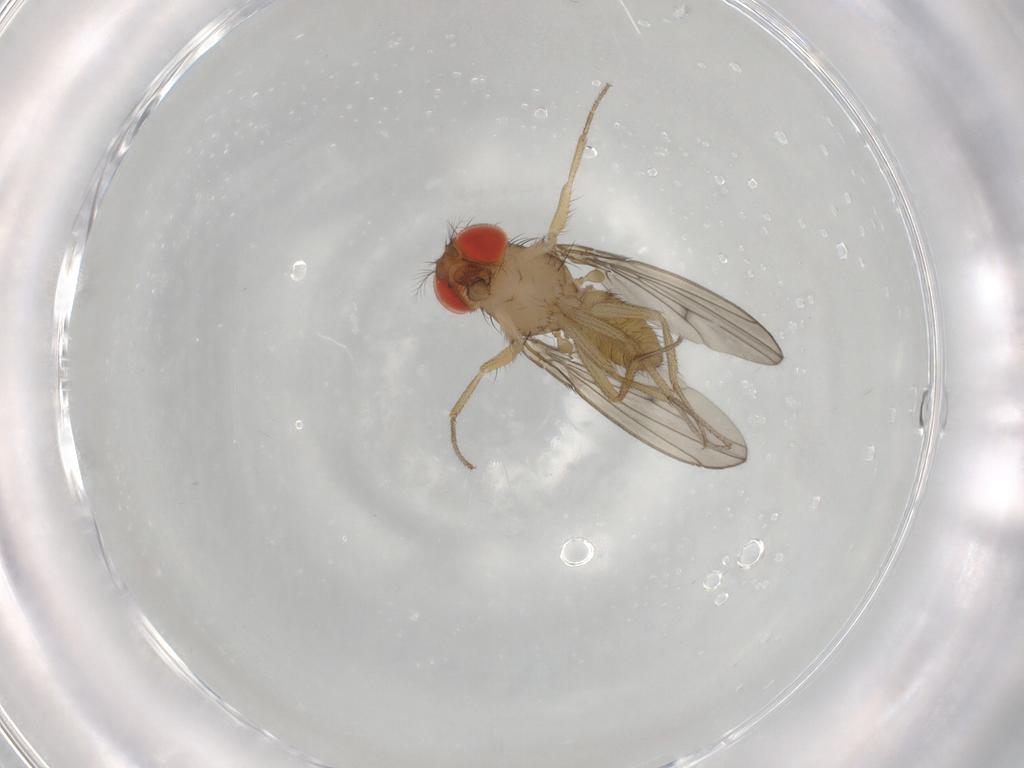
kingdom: Animalia
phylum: Arthropoda
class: Insecta
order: Diptera
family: Drosophilidae
